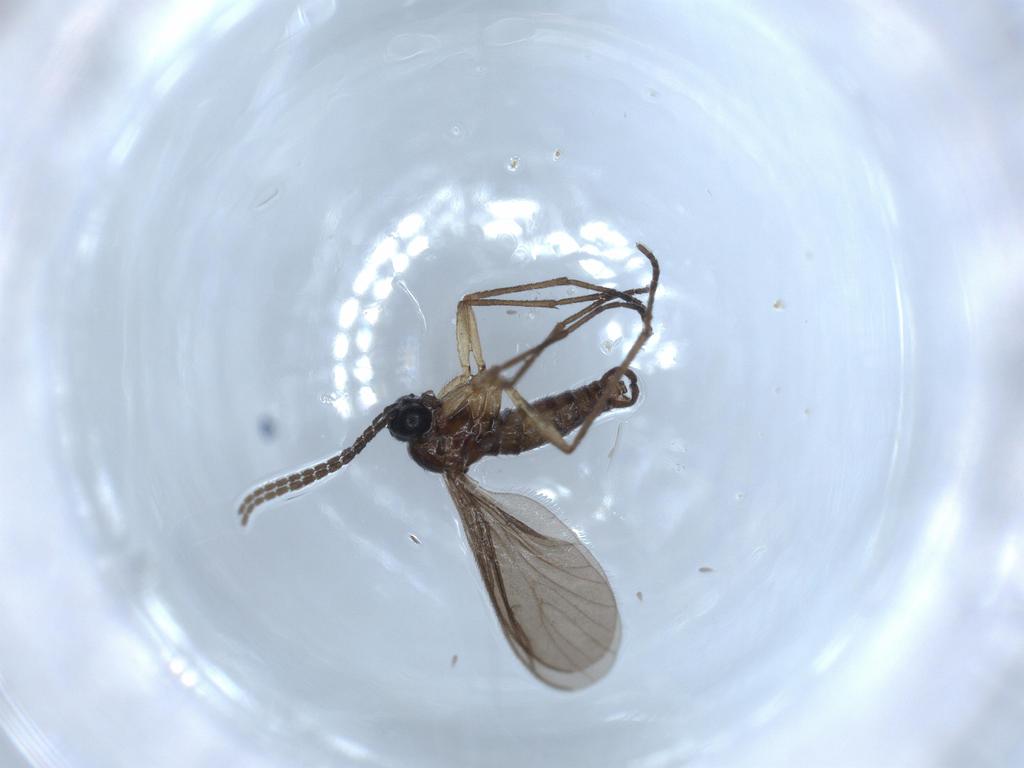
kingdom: Animalia
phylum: Arthropoda
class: Insecta
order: Diptera
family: Sciaridae
